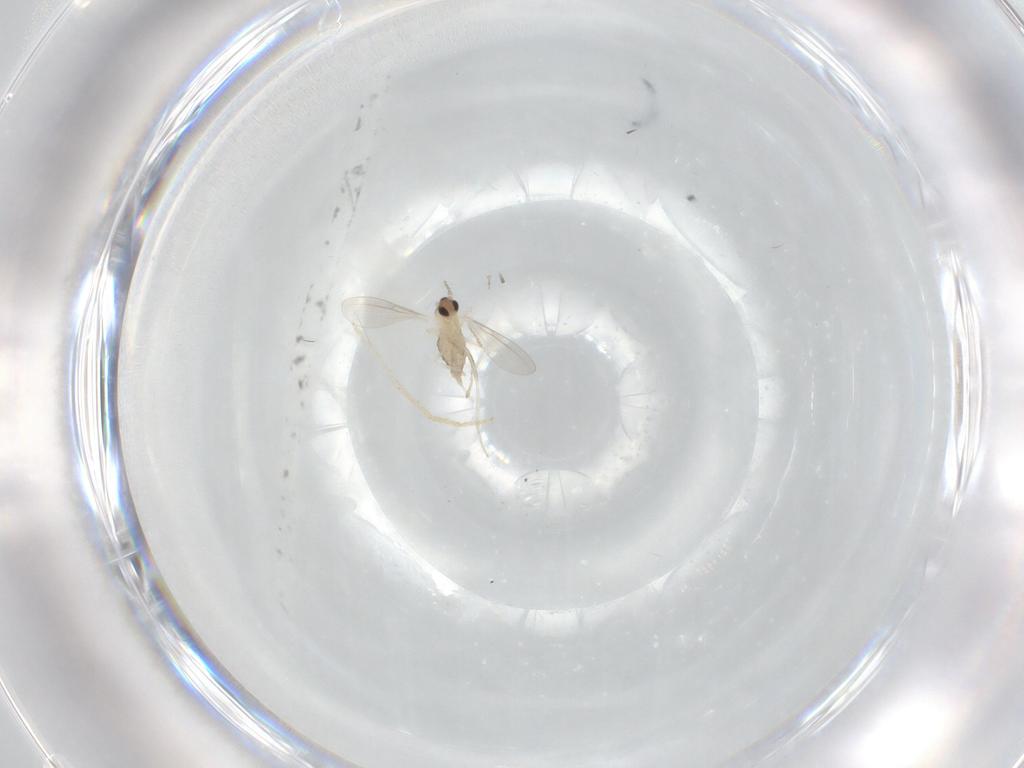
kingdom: Animalia
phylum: Arthropoda
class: Insecta
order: Diptera
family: Cecidomyiidae
